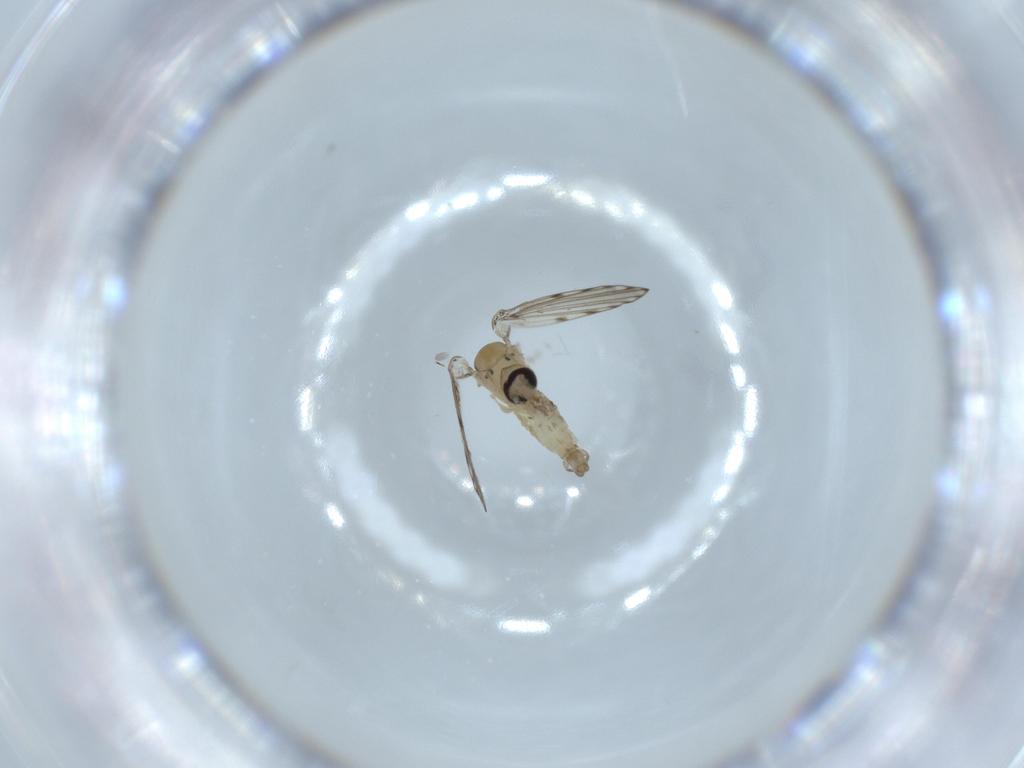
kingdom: Animalia
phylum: Arthropoda
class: Insecta
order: Diptera
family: Psychodidae
